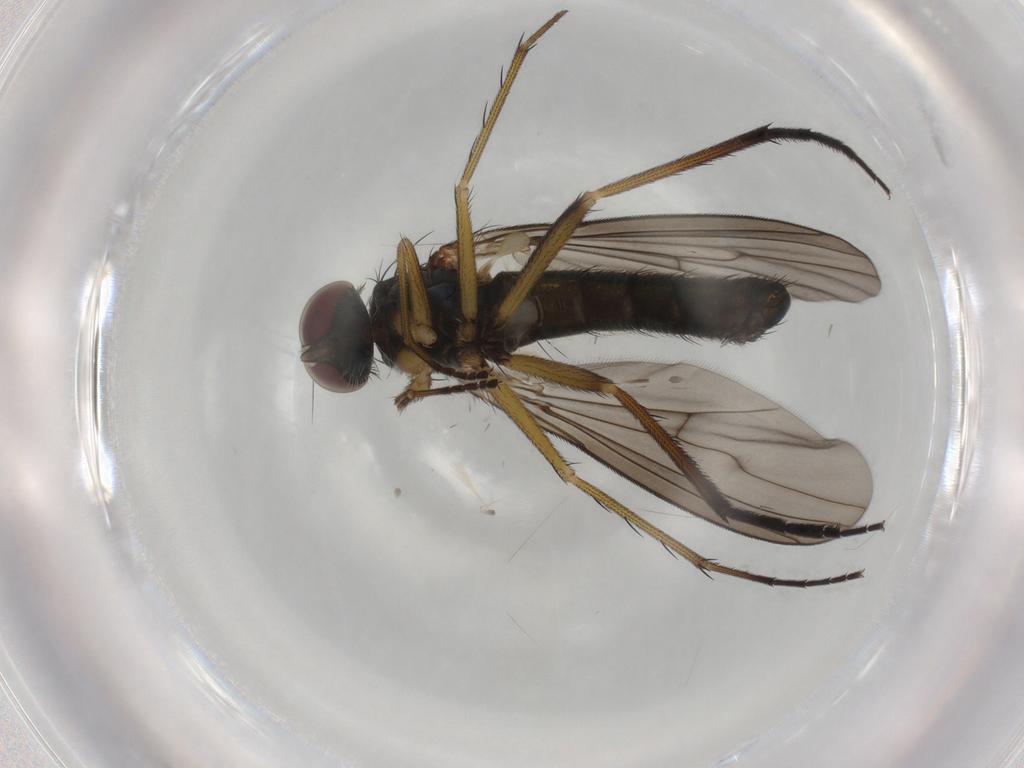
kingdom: Animalia
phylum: Arthropoda
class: Insecta
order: Diptera
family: Dolichopodidae
